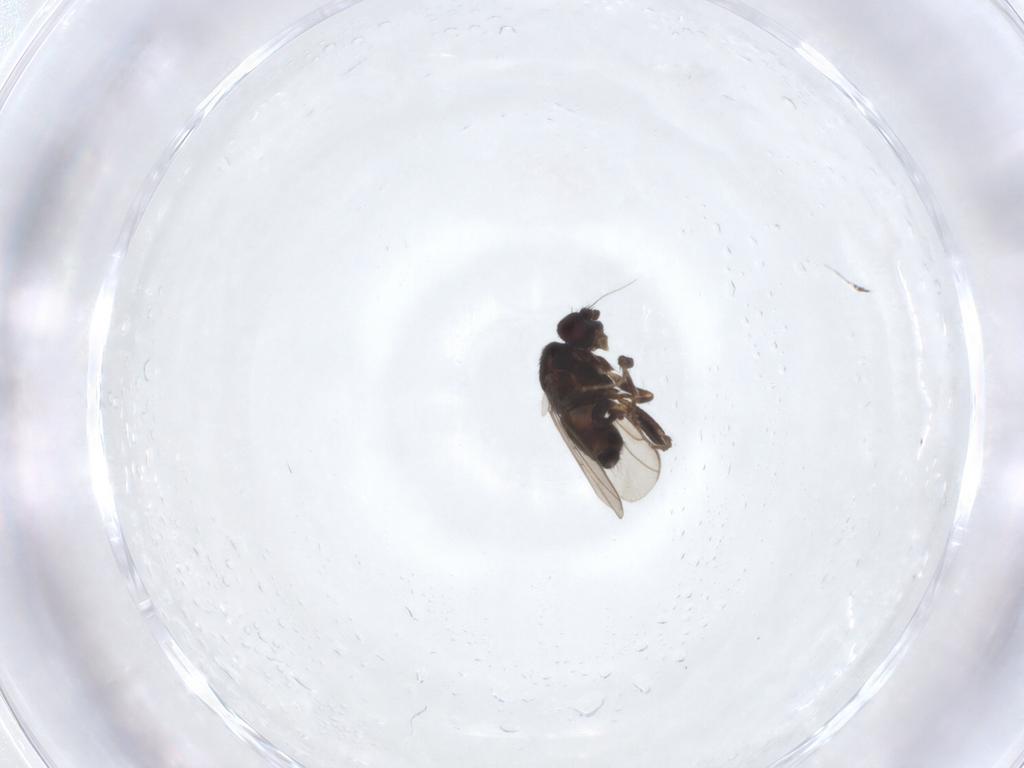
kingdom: Animalia
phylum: Arthropoda
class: Insecta
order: Diptera
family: Sphaeroceridae
